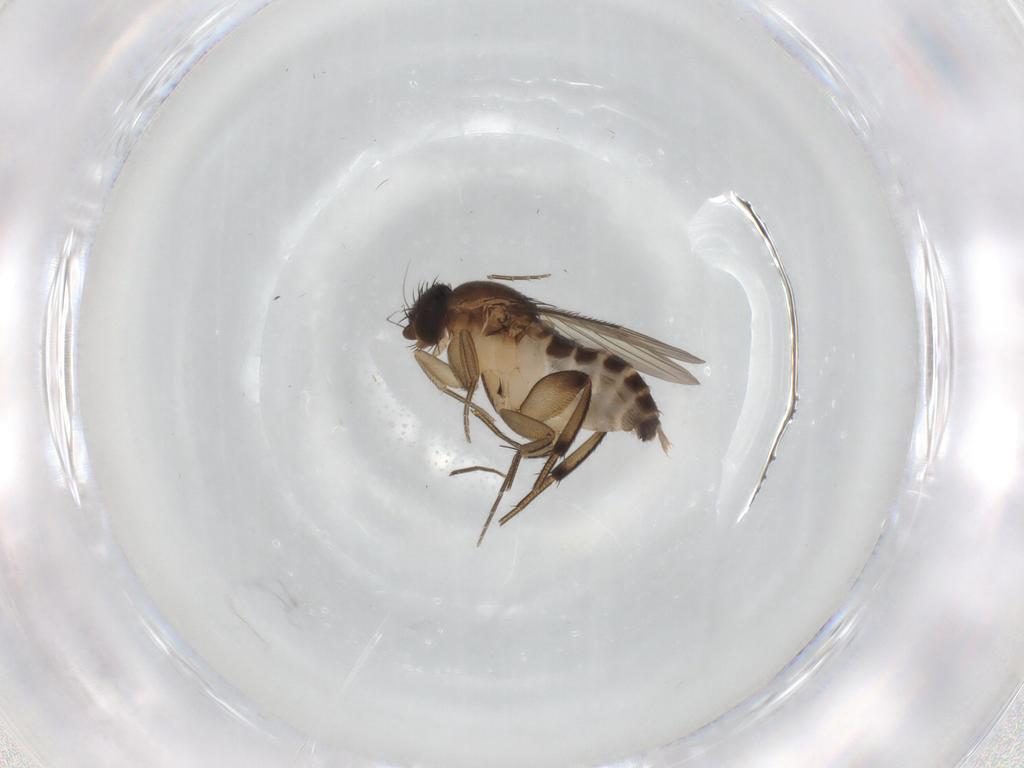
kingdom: Animalia
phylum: Arthropoda
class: Insecta
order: Diptera
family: Phoridae
